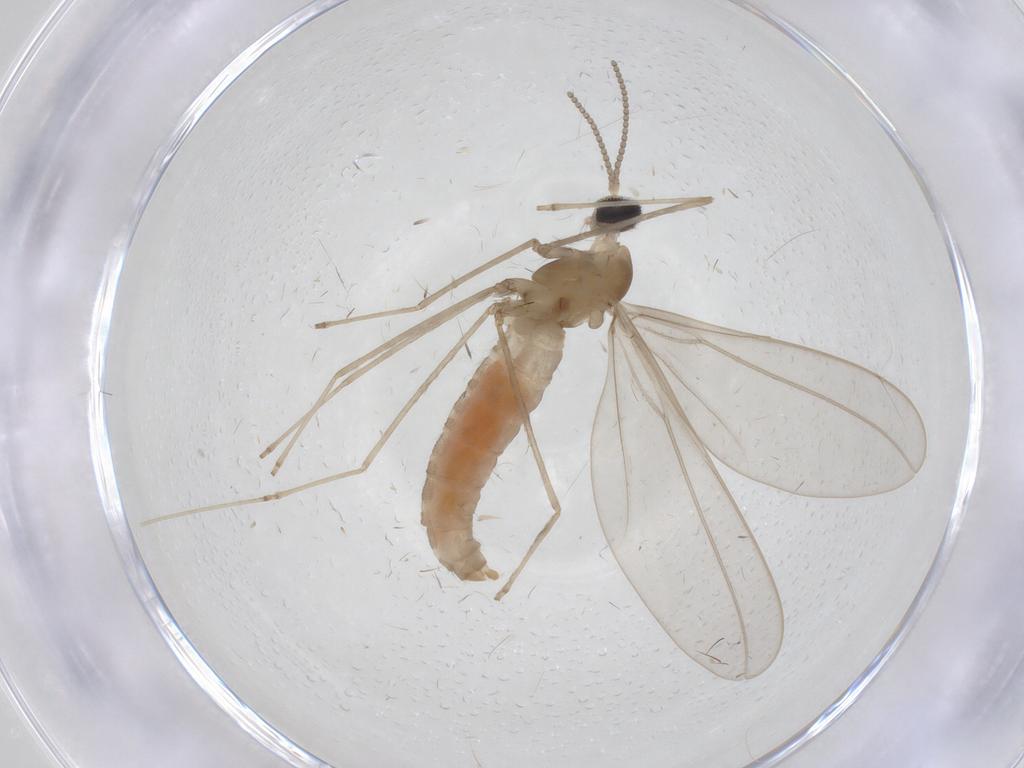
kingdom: Animalia
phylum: Arthropoda
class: Insecta
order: Diptera
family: Cecidomyiidae
